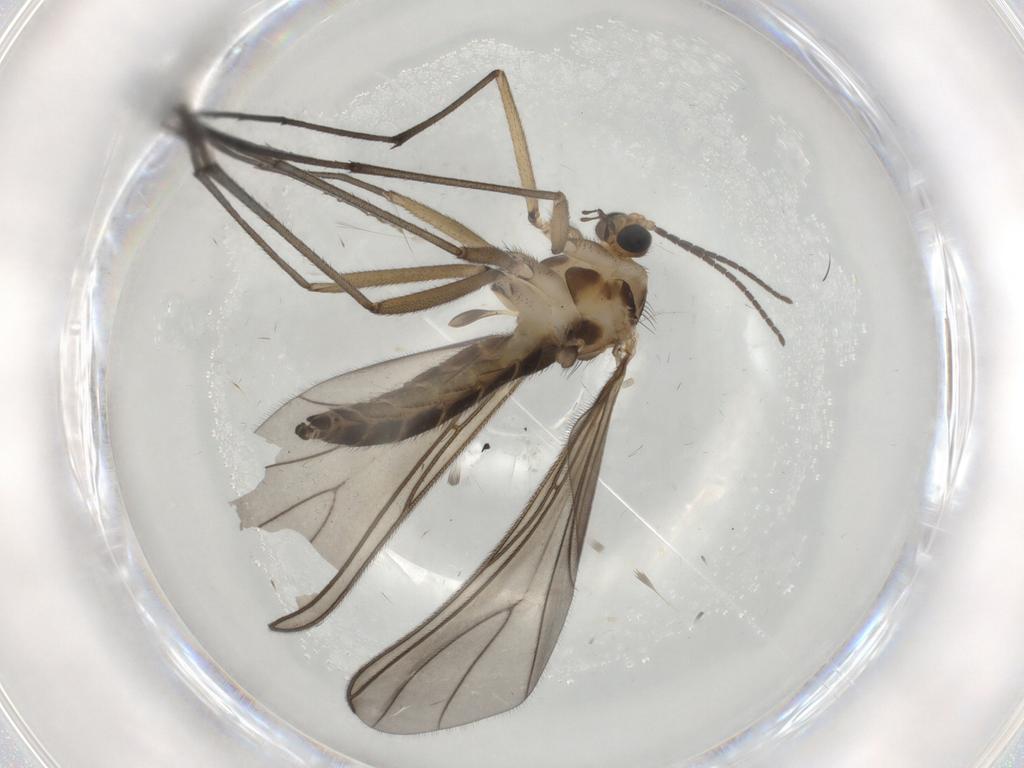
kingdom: Animalia
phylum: Arthropoda
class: Insecta
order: Diptera
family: Sciaridae
